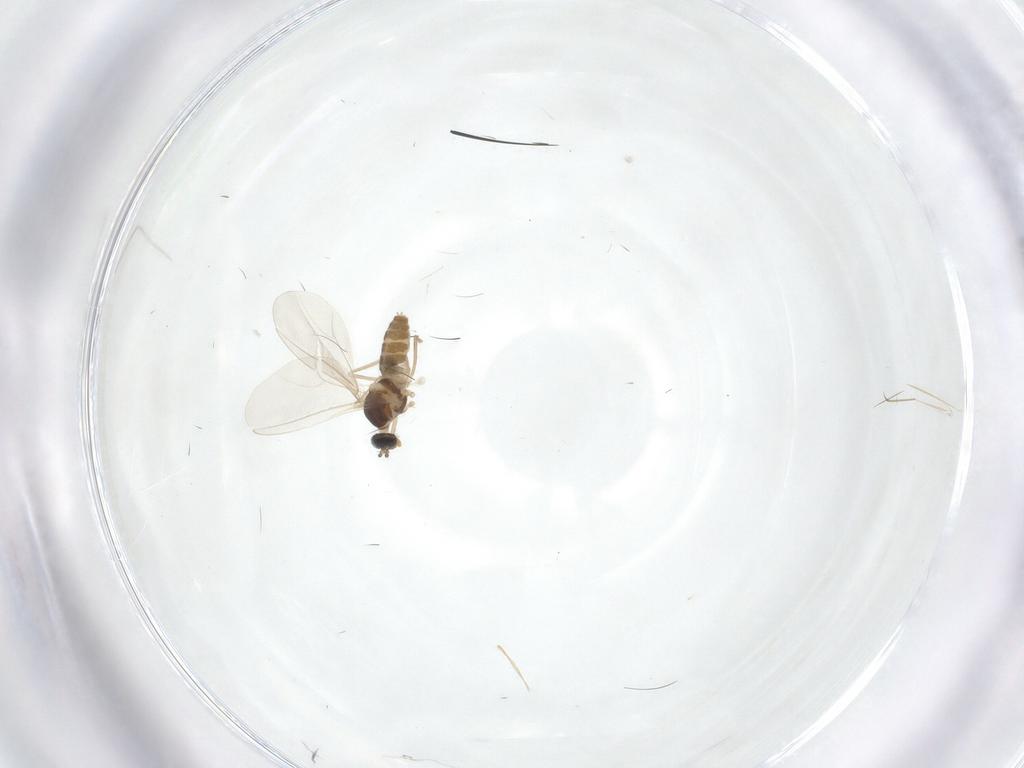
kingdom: Animalia
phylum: Arthropoda
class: Insecta
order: Diptera
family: Cecidomyiidae
